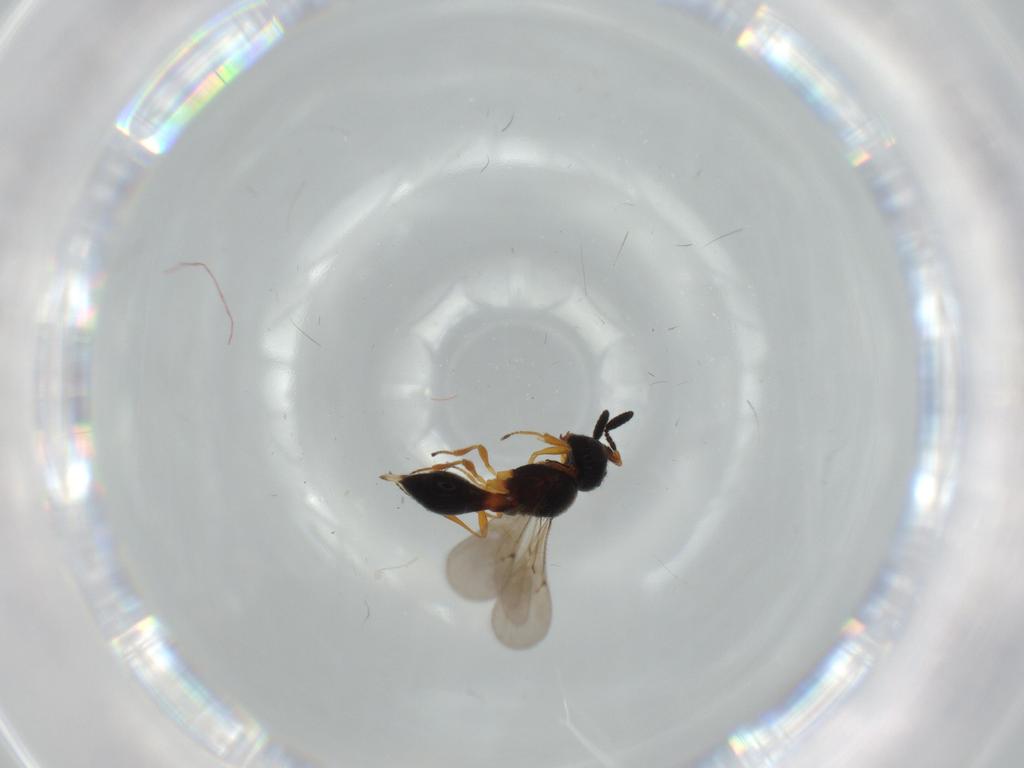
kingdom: Animalia
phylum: Arthropoda
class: Insecta
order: Hymenoptera
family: Scelionidae
